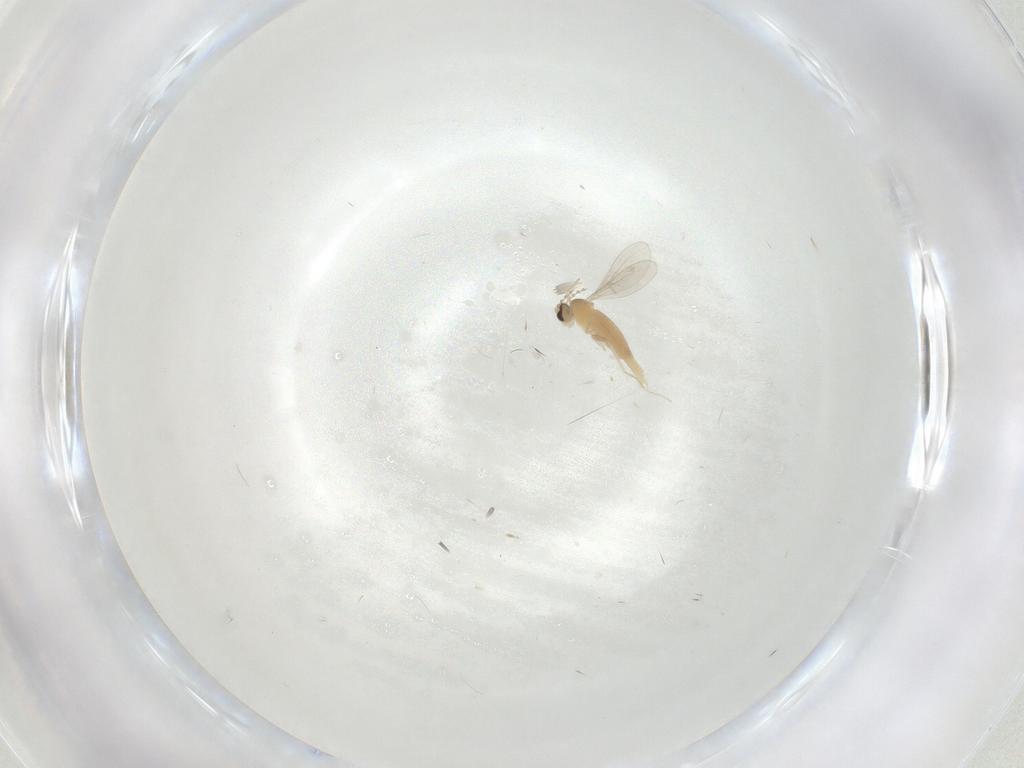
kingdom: Animalia
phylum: Arthropoda
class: Insecta
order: Diptera
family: Cecidomyiidae
